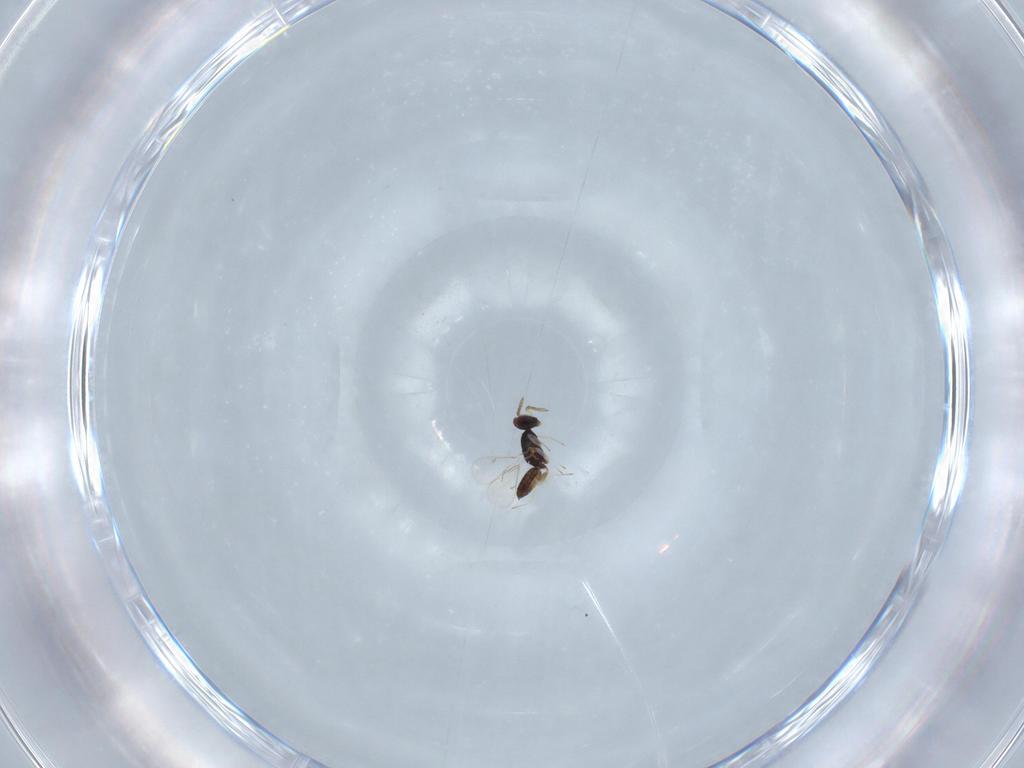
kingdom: Animalia
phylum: Arthropoda
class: Insecta
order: Hymenoptera
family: Eulophidae
